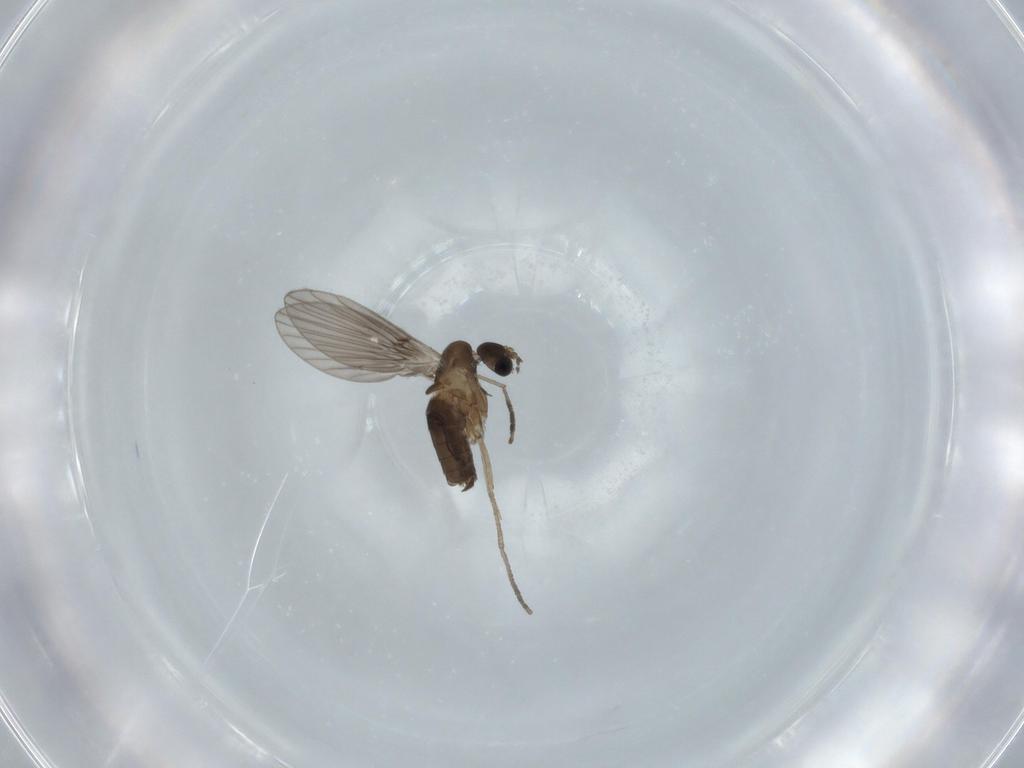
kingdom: Animalia
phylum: Arthropoda
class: Insecta
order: Diptera
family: Psychodidae
